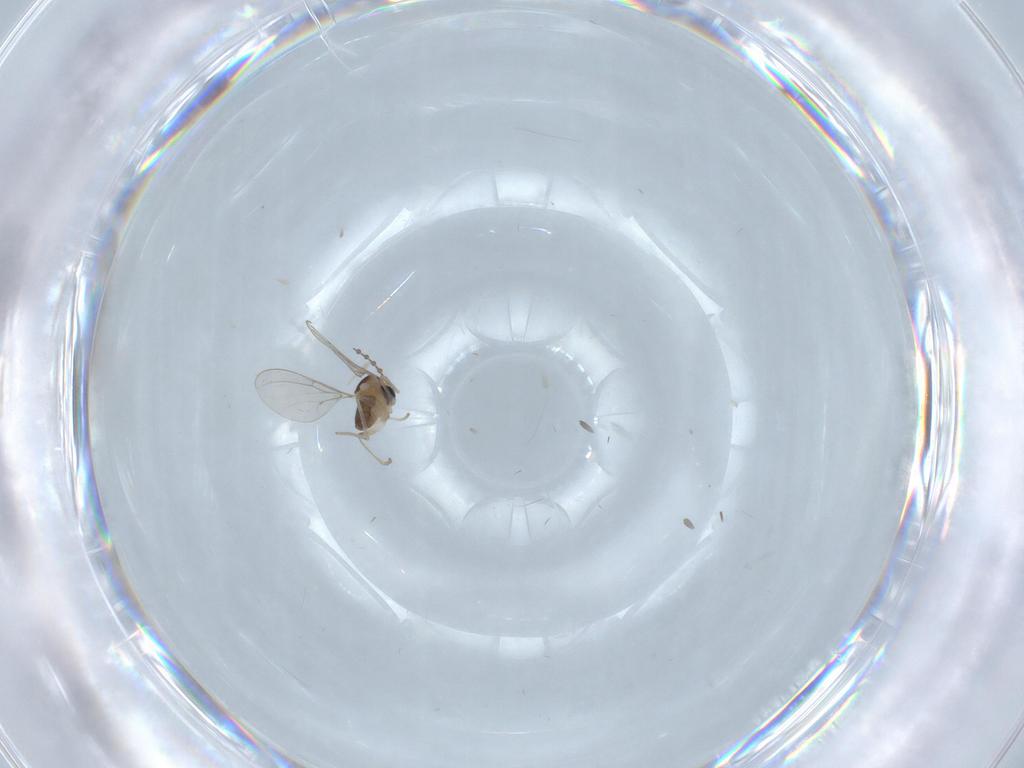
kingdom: Animalia
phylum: Arthropoda
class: Insecta
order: Diptera
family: Cecidomyiidae
